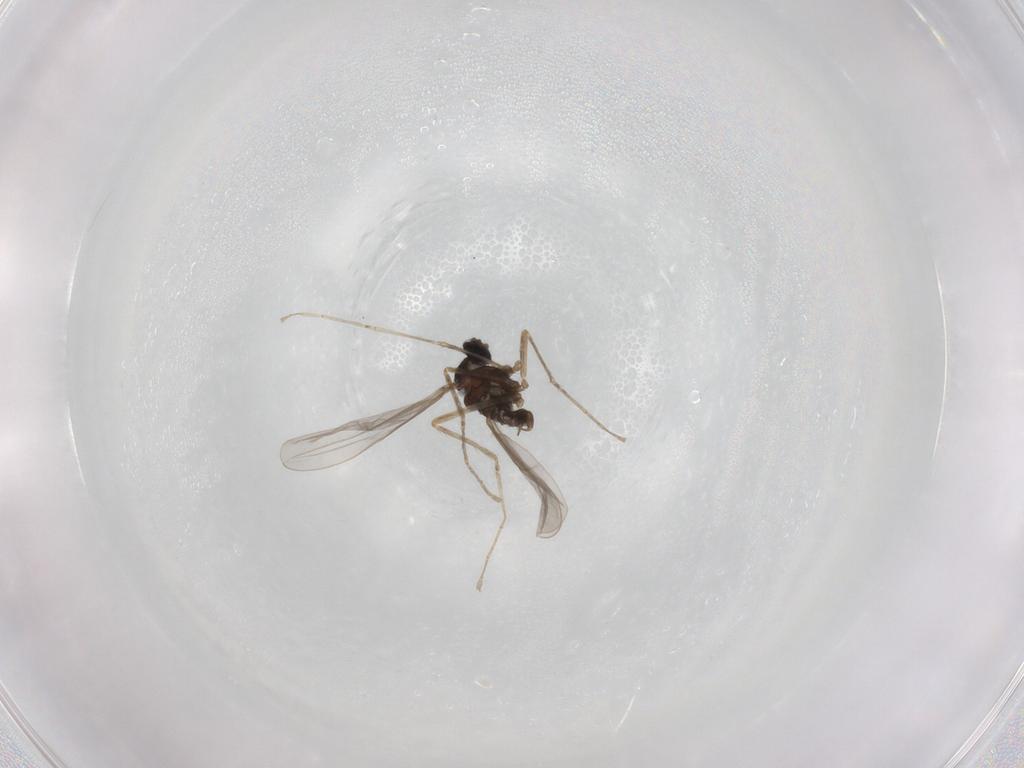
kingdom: Animalia
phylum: Arthropoda
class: Insecta
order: Diptera
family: Cecidomyiidae
